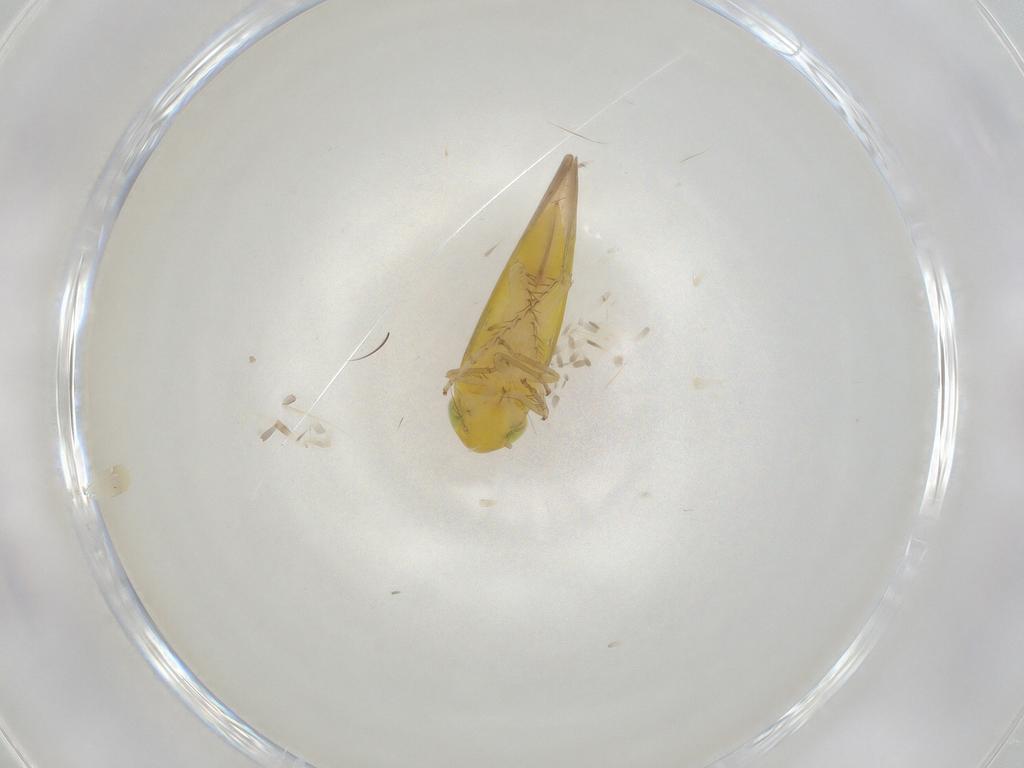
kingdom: Animalia
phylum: Arthropoda
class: Insecta
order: Hemiptera
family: Cicadellidae
